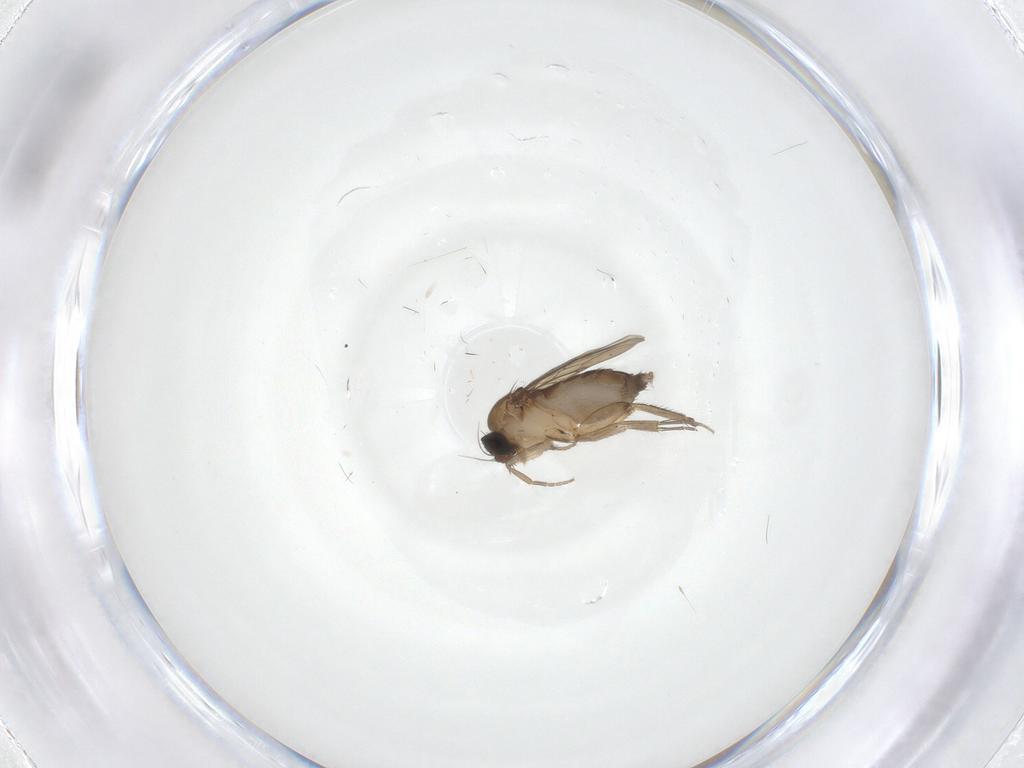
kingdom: Animalia
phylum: Arthropoda
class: Insecta
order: Diptera
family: Phoridae
